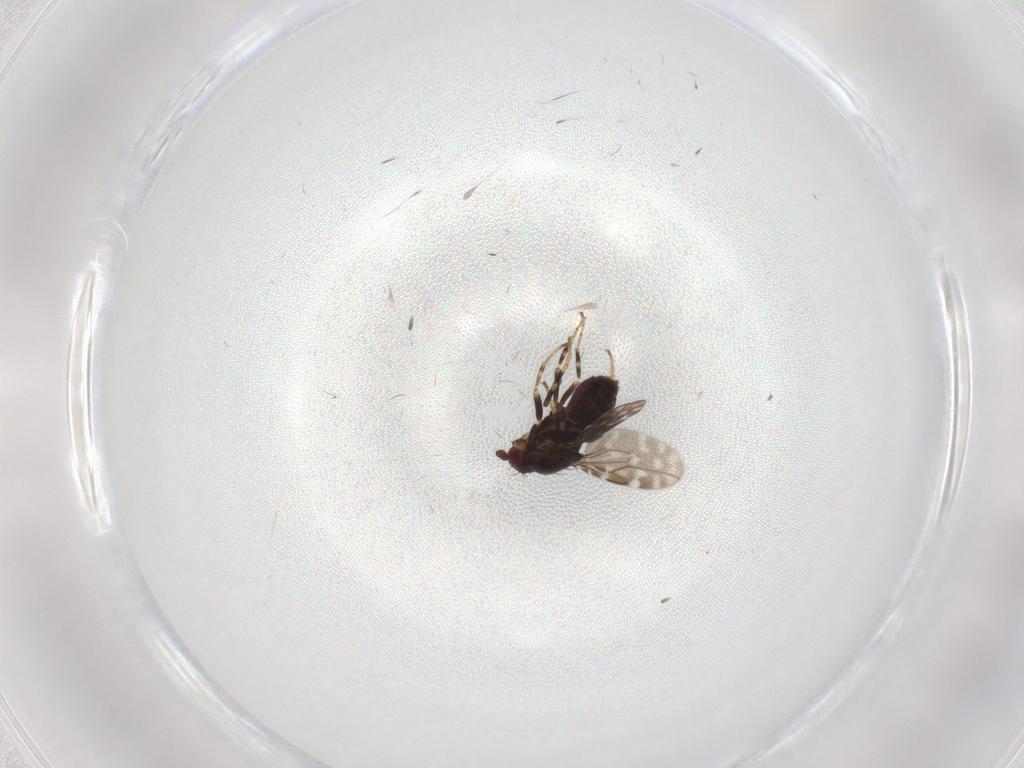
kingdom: Animalia
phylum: Arthropoda
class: Insecta
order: Diptera
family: Sphaeroceridae
